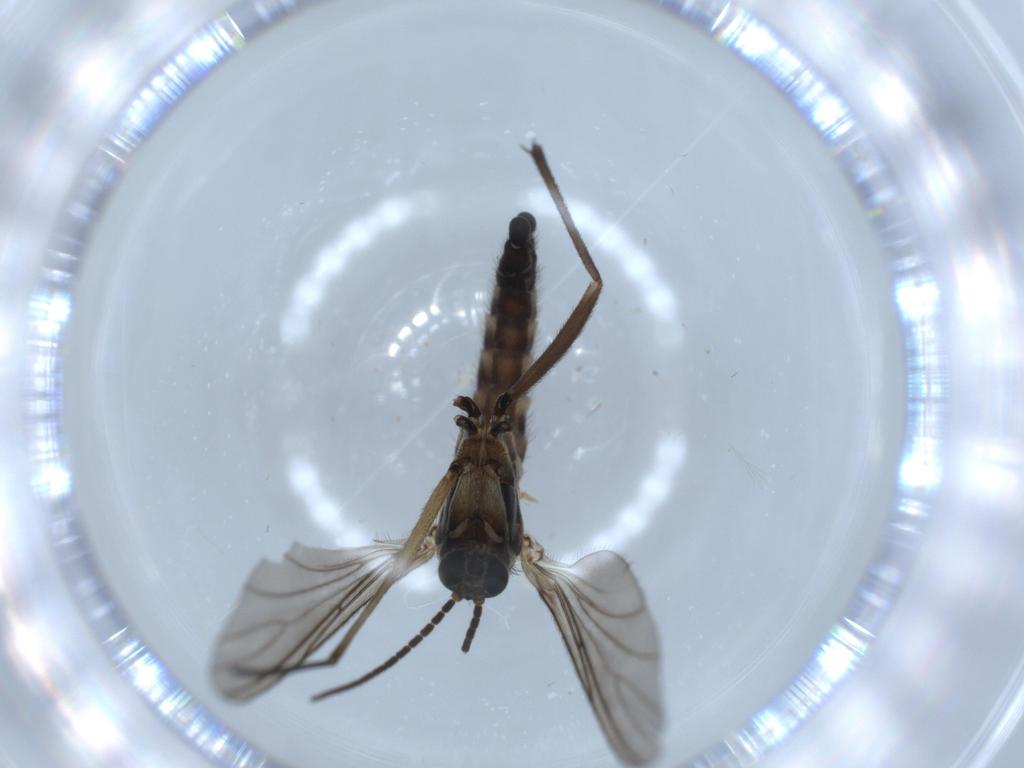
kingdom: Animalia
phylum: Arthropoda
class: Insecta
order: Diptera
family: Sciaridae
